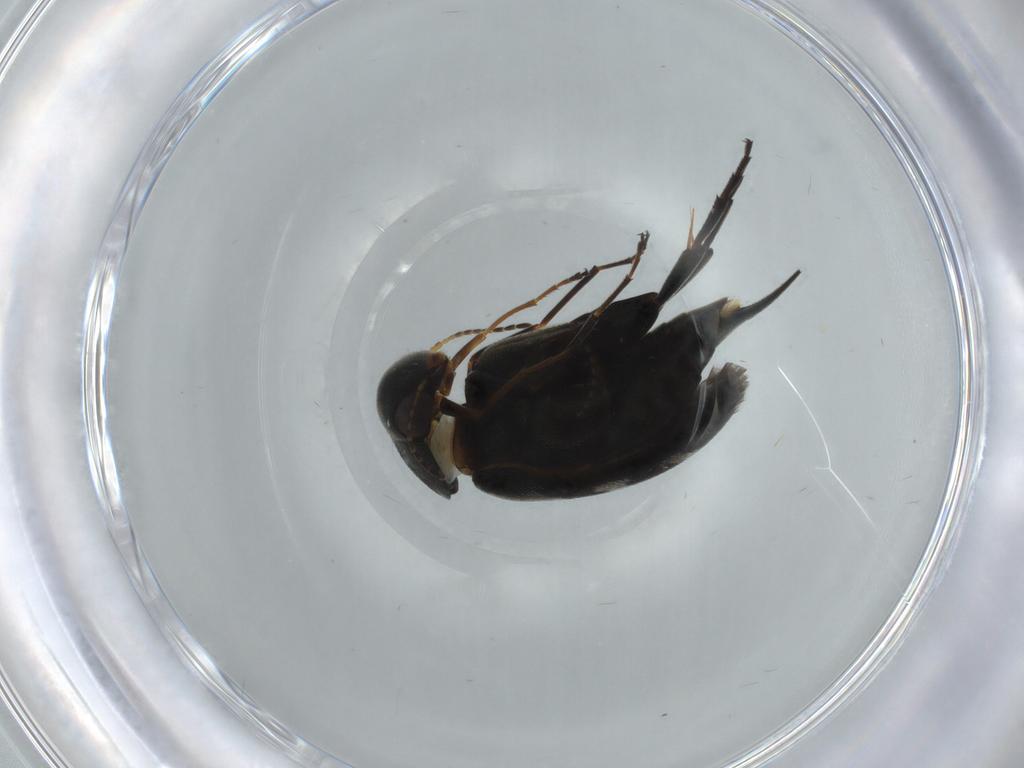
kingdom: Animalia
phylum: Arthropoda
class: Insecta
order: Coleoptera
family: Mordellidae
